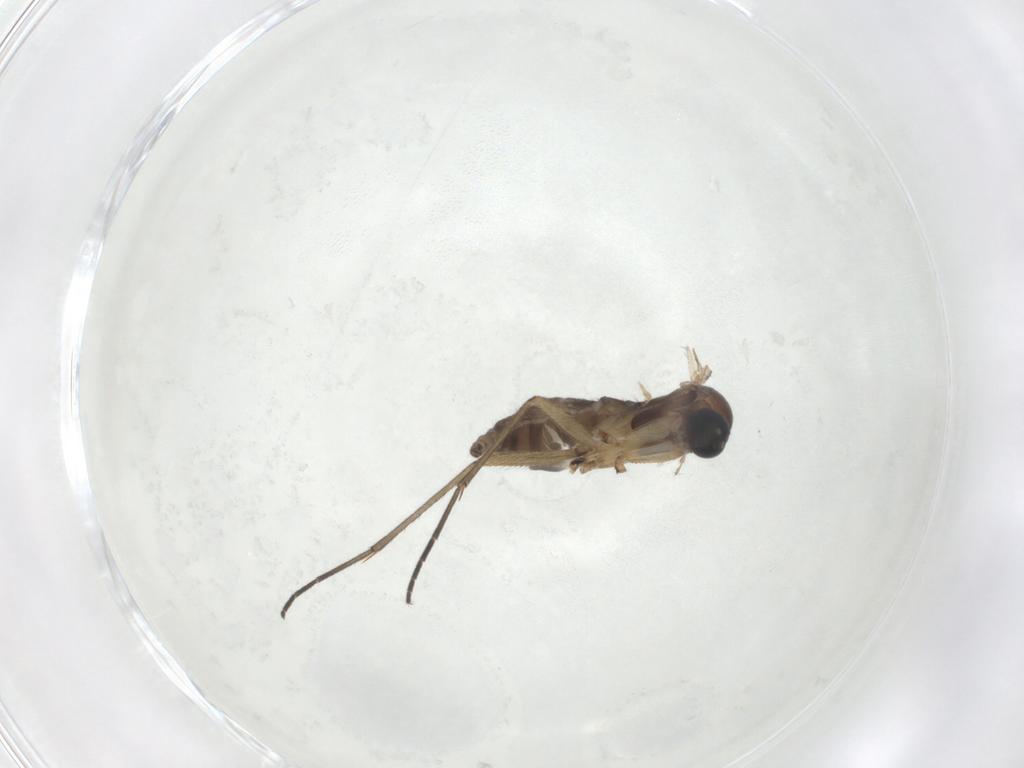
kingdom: Animalia
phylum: Arthropoda
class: Insecta
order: Diptera
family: Sciaridae
